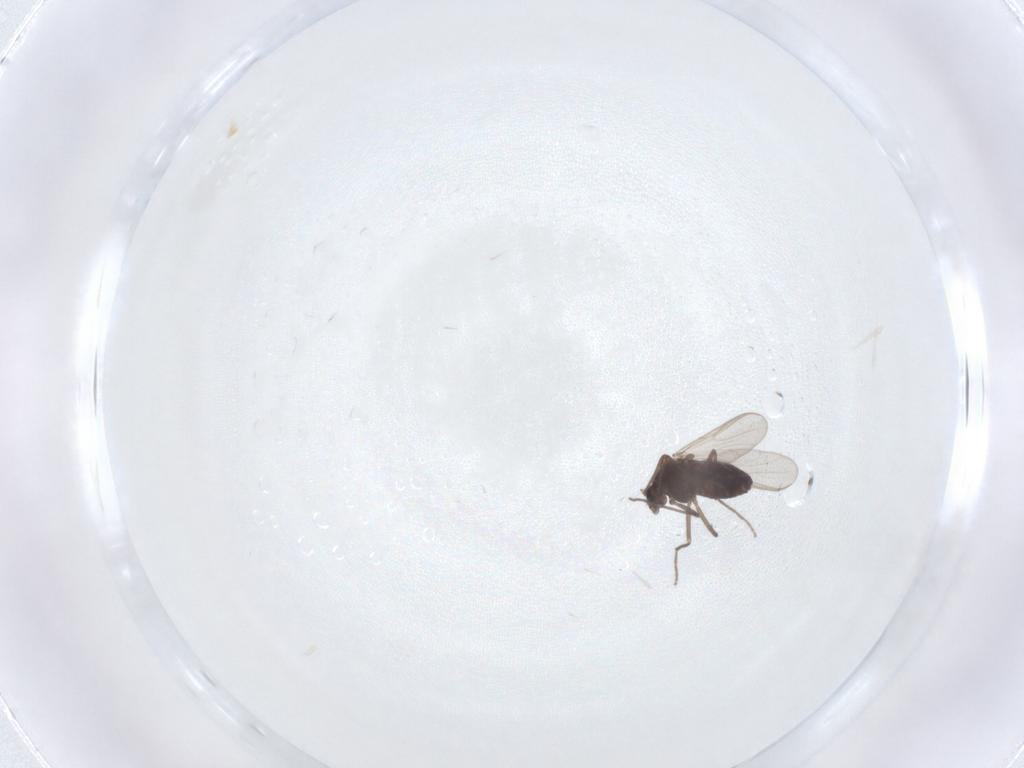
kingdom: Animalia
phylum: Arthropoda
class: Insecta
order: Diptera
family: Chironomidae
